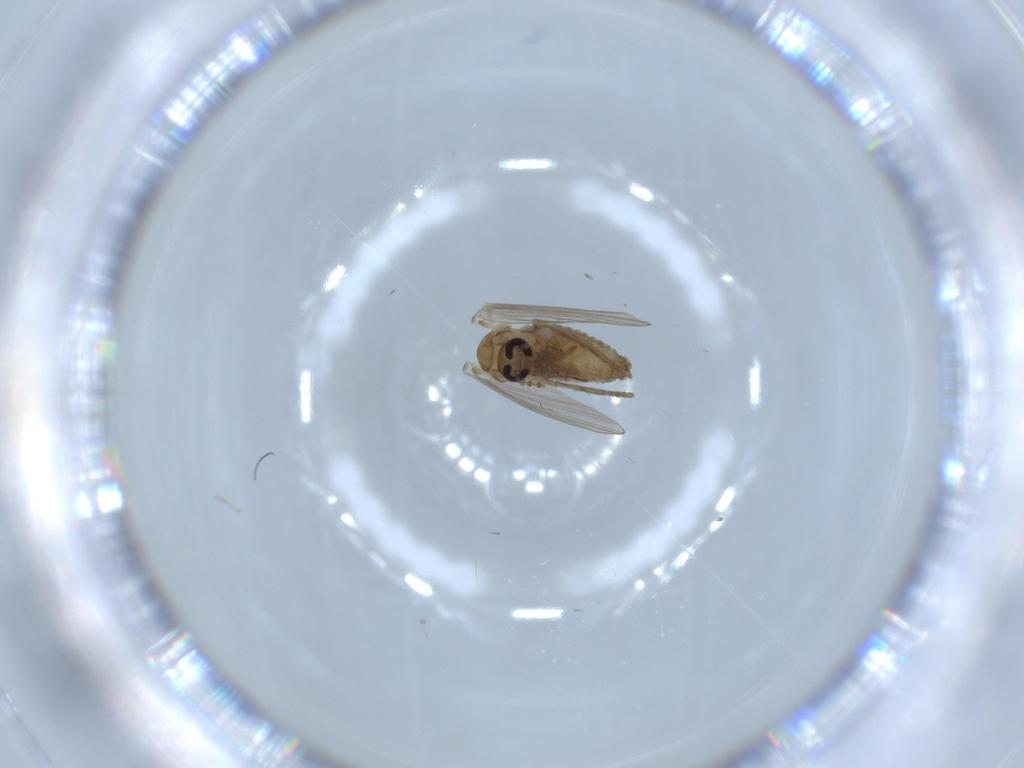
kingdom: Animalia
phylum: Arthropoda
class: Insecta
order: Diptera
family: Psychodidae
